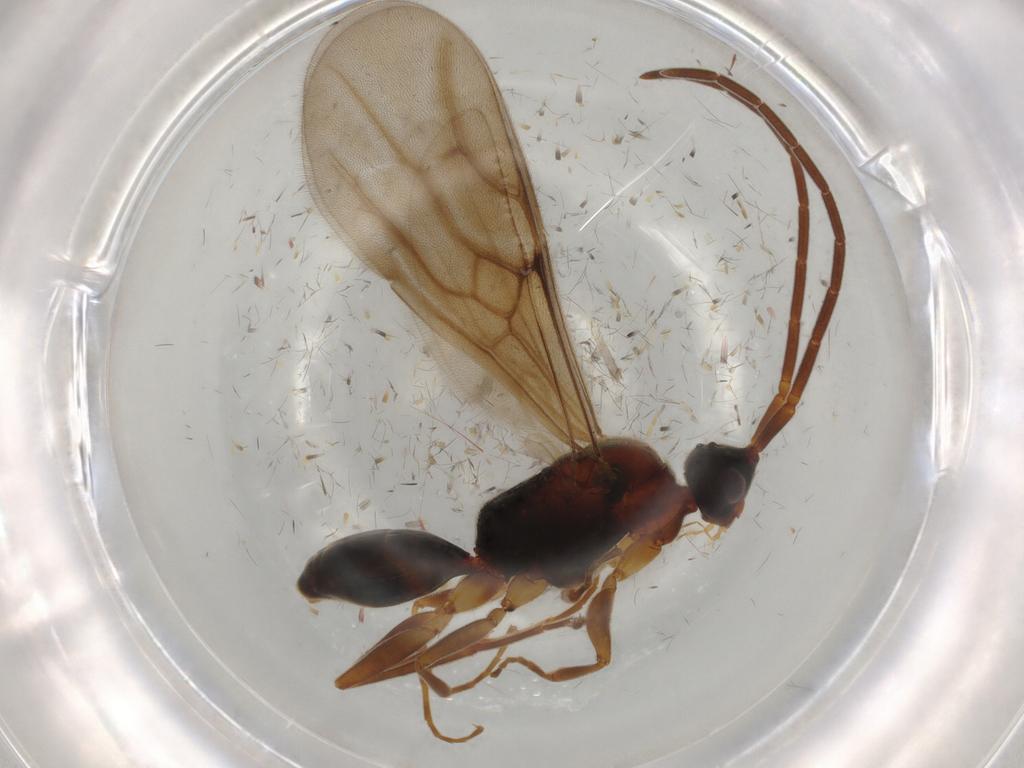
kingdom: Animalia
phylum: Arthropoda
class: Insecta
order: Hymenoptera
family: Embolemidae
